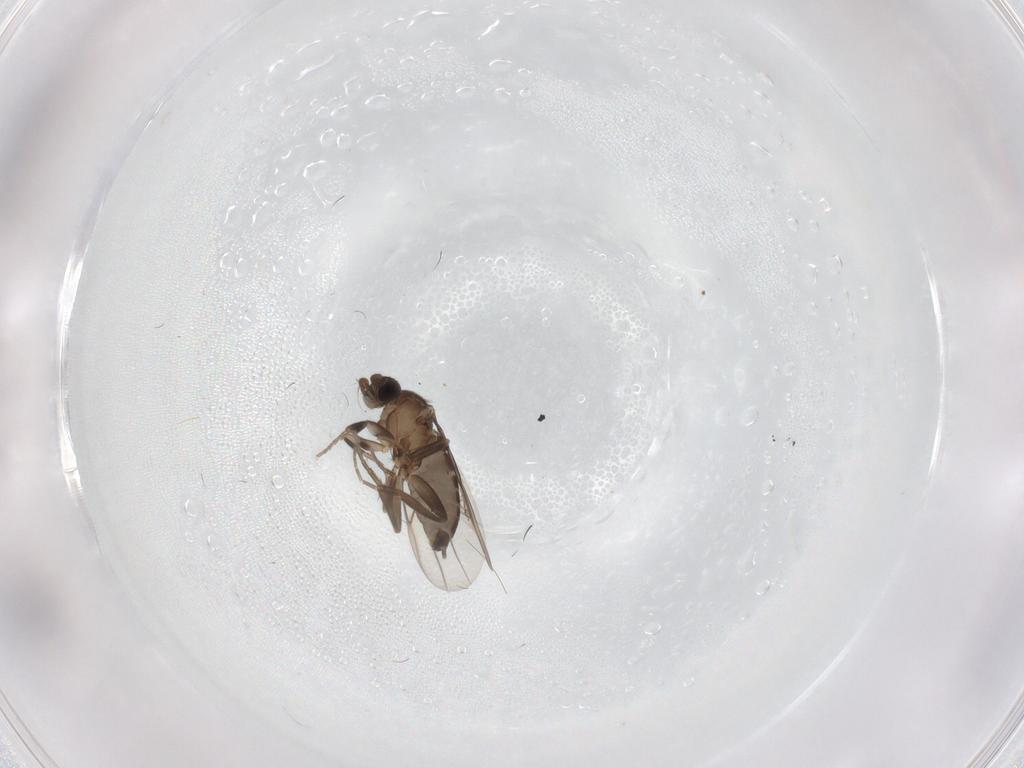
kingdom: Animalia
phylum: Arthropoda
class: Insecta
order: Diptera
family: Phoridae
